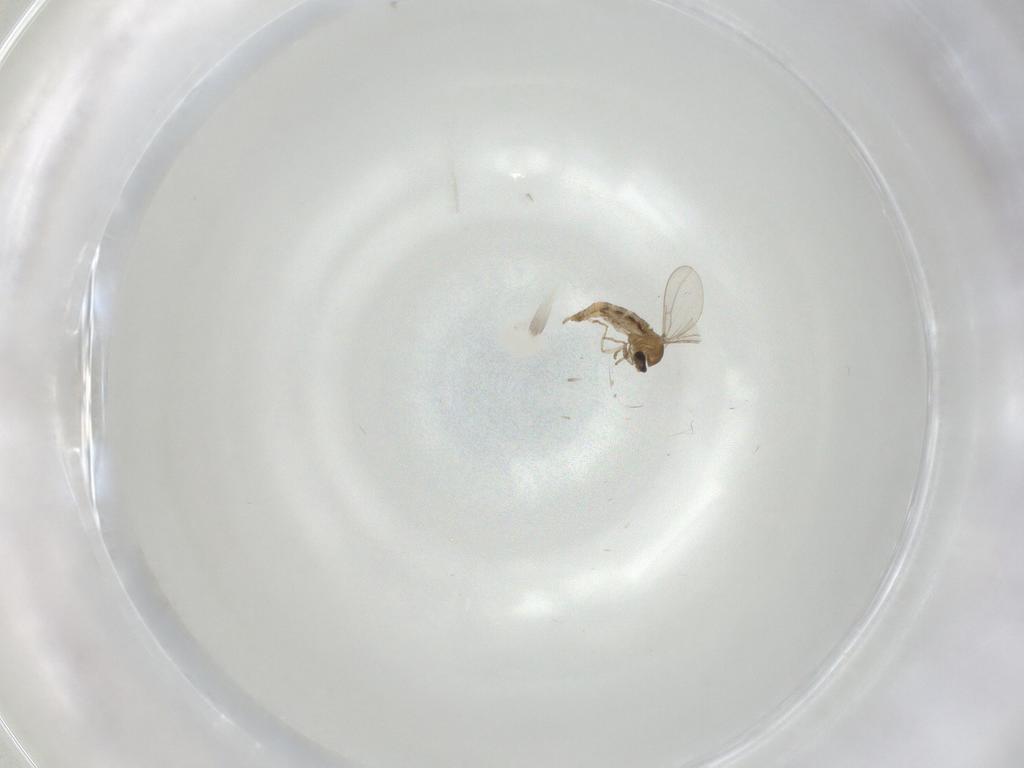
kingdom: Animalia
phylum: Arthropoda
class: Insecta
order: Diptera
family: Cecidomyiidae
